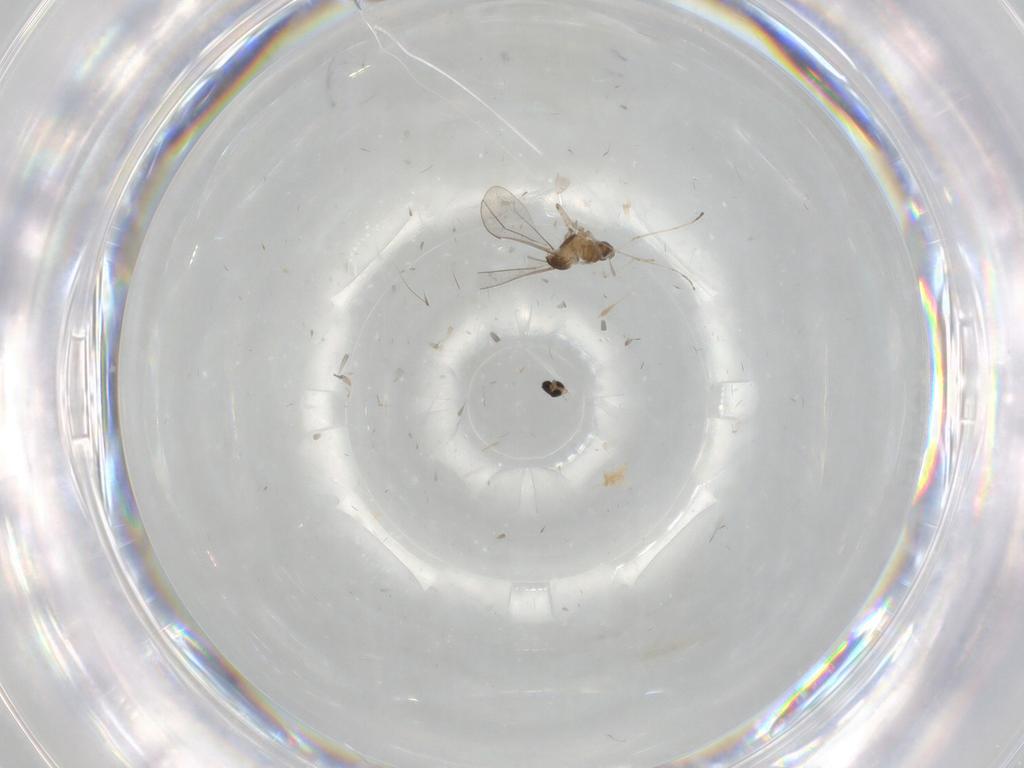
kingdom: Animalia
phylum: Arthropoda
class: Insecta
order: Diptera
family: Cecidomyiidae
